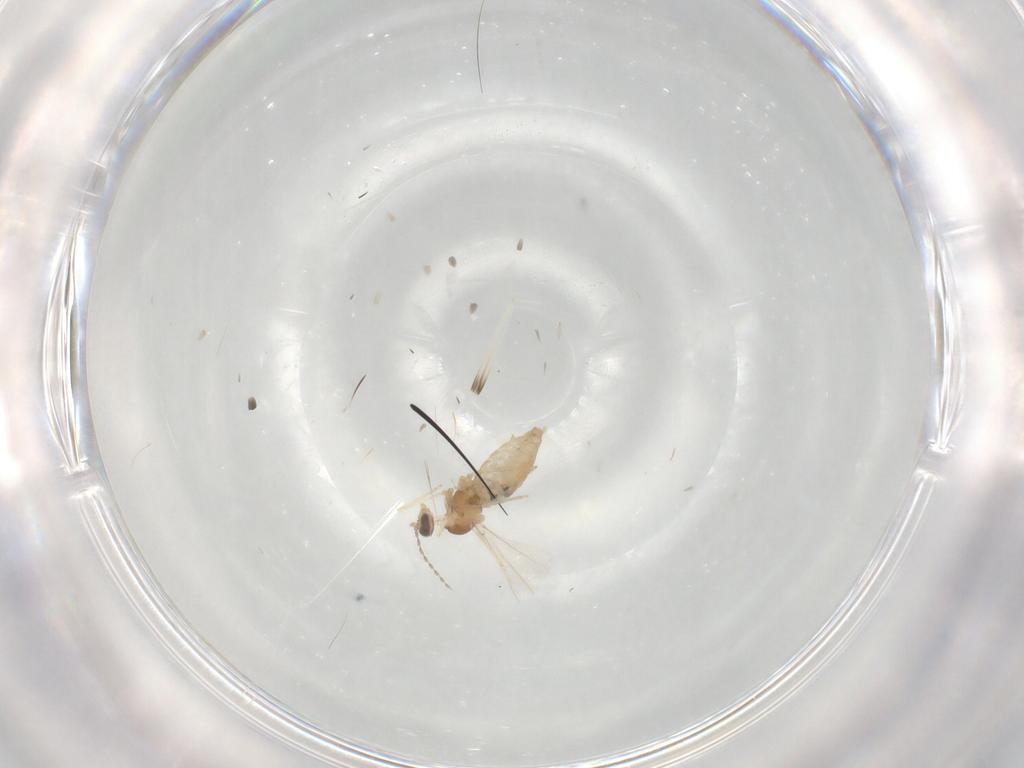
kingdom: Animalia
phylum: Arthropoda
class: Insecta
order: Diptera
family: Cecidomyiidae
